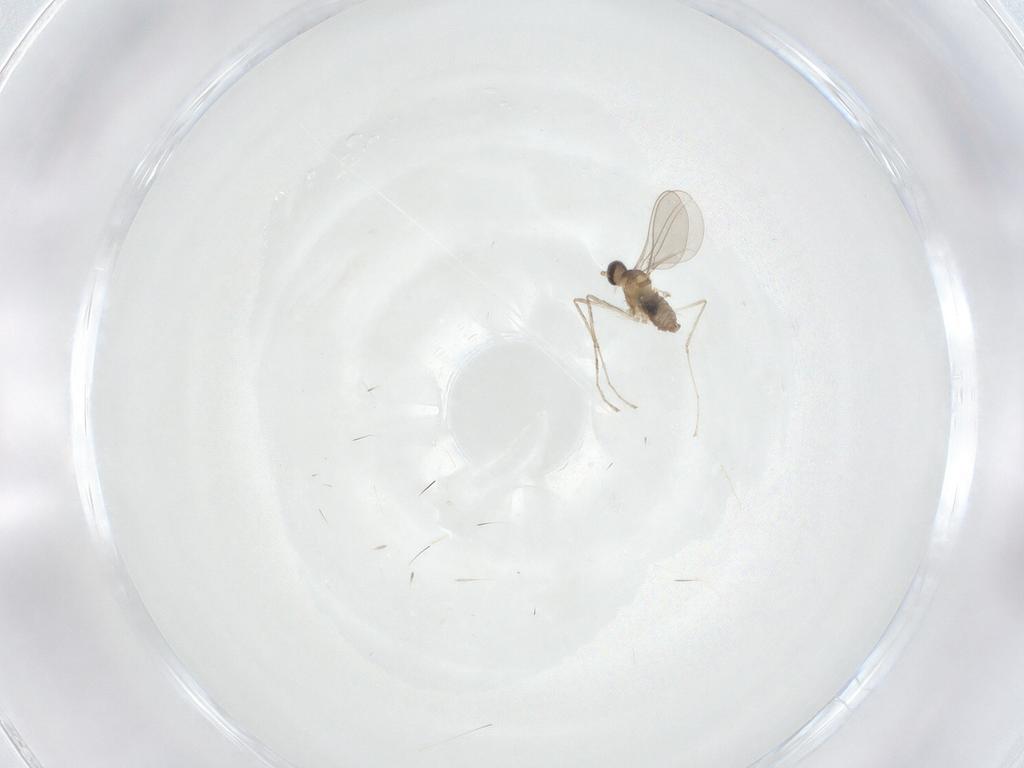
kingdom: Animalia
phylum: Arthropoda
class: Insecta
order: Diptera
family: Cecidomyiidae
